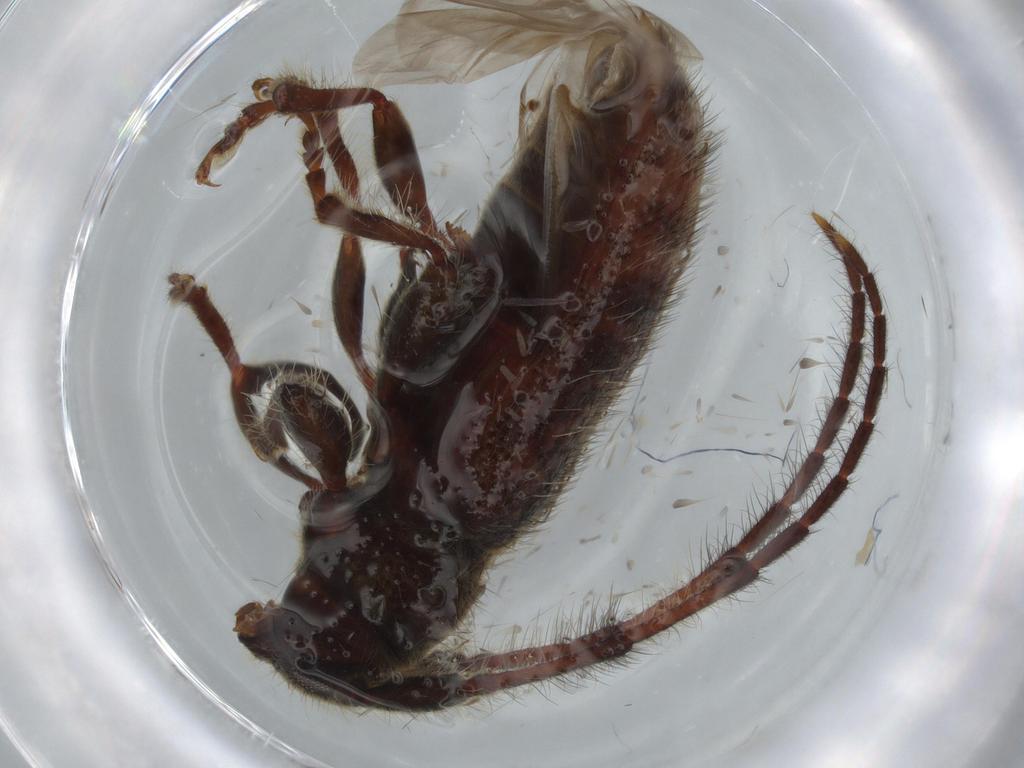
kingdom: Animalia
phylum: Arthropoda
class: Insecta
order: Coleoptera
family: Cerambycidae
